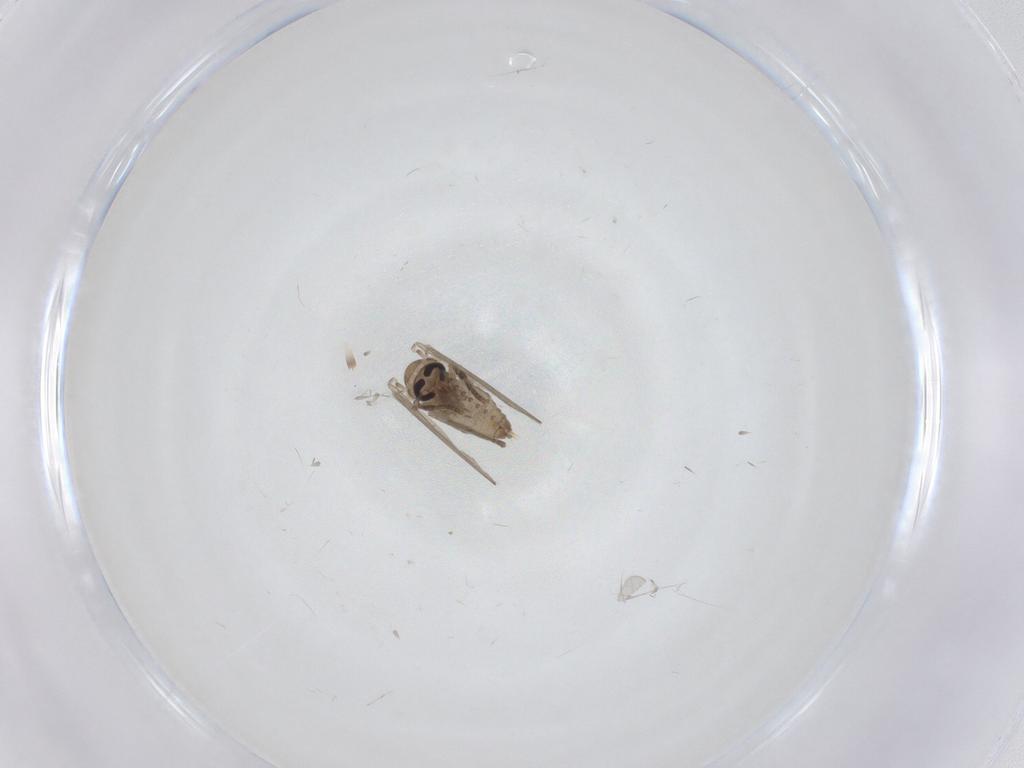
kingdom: Animalia
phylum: Arthropoda
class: Insecta
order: Diptera
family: Psychodidae
